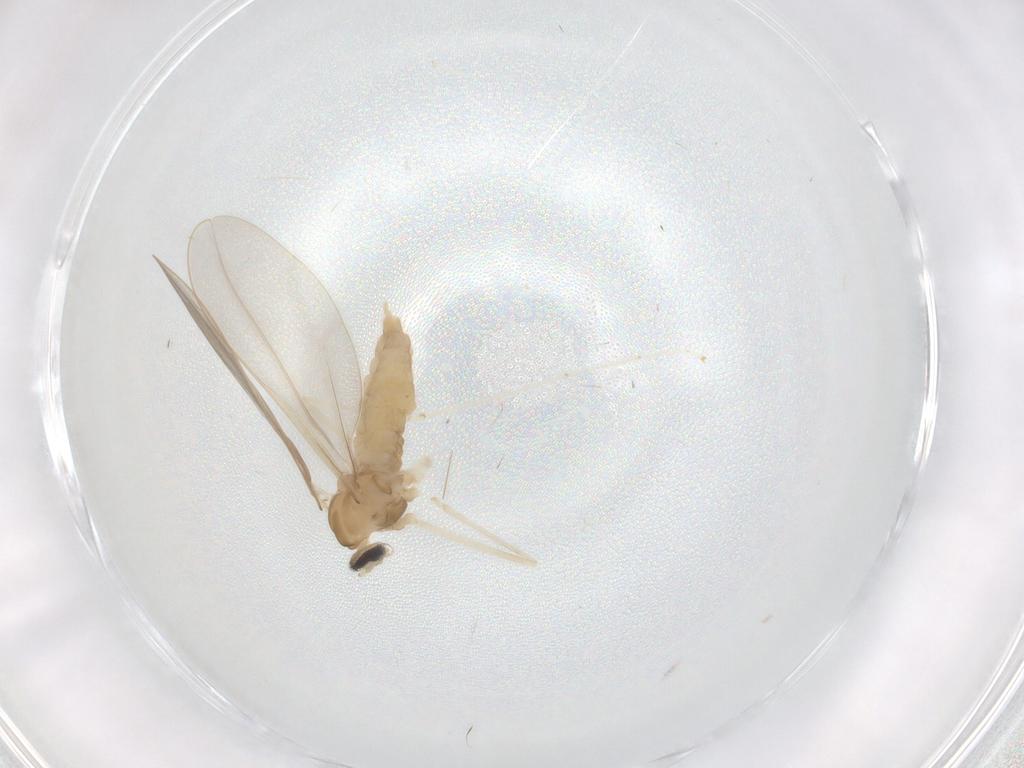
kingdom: Animalia
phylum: Arthropoda
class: Insecta
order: Diptera
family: Cecidomyiidae
